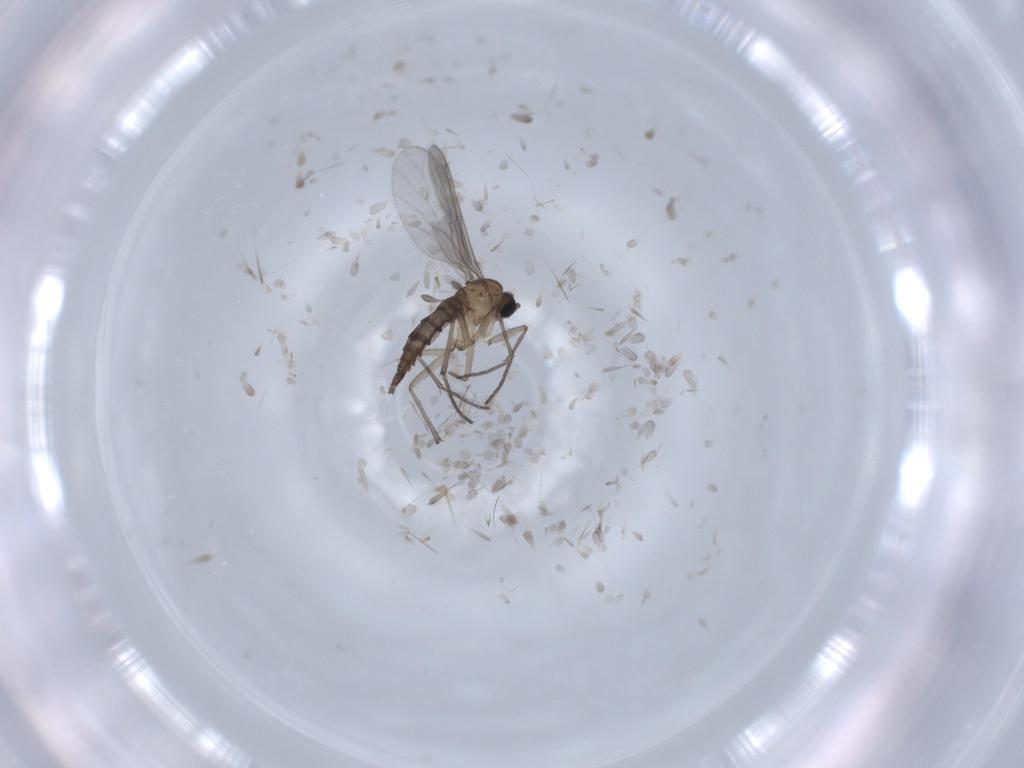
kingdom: Animalia
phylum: Arthropoda
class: Insecta
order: Diptera
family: Sciaridae
